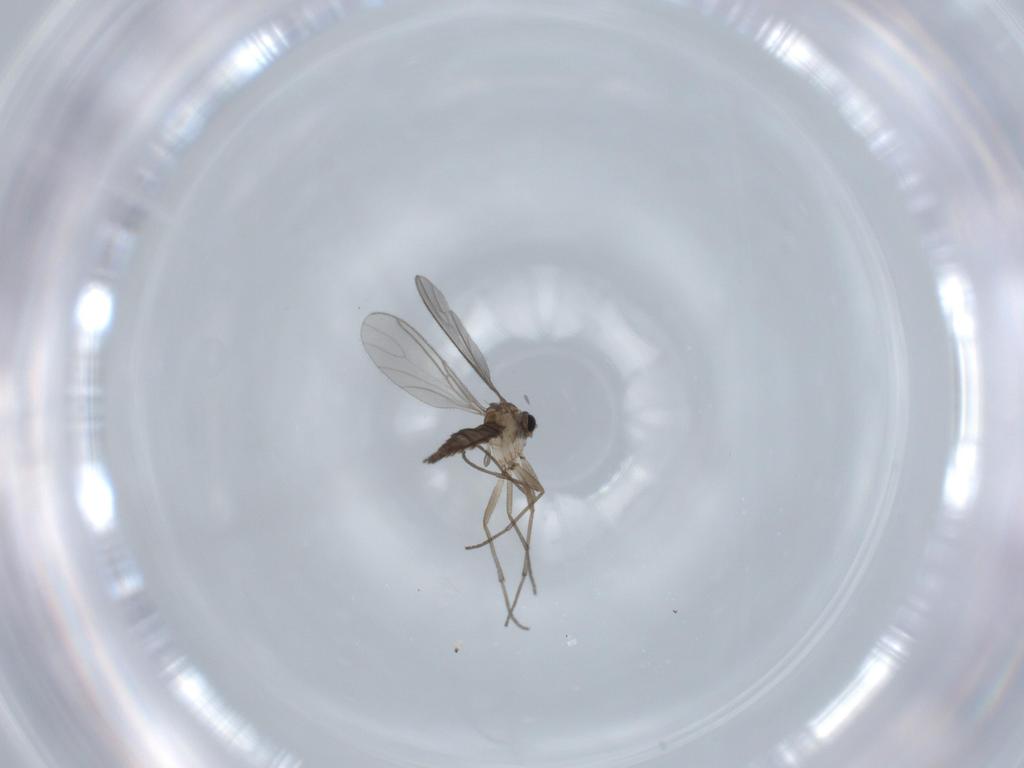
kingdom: Animalia
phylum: Arthropoda
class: Insecta
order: Diptera
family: Sciaridae
